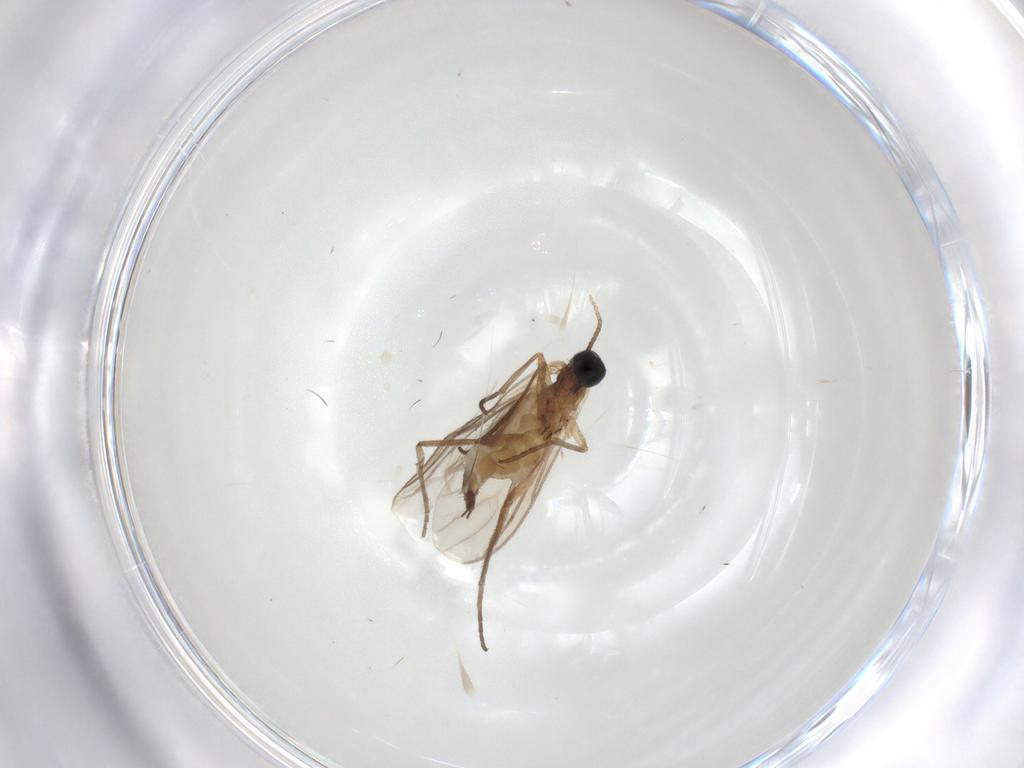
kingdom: Animalia
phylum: Arthropoda
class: Insecta
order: Diptera
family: Sciaridae
